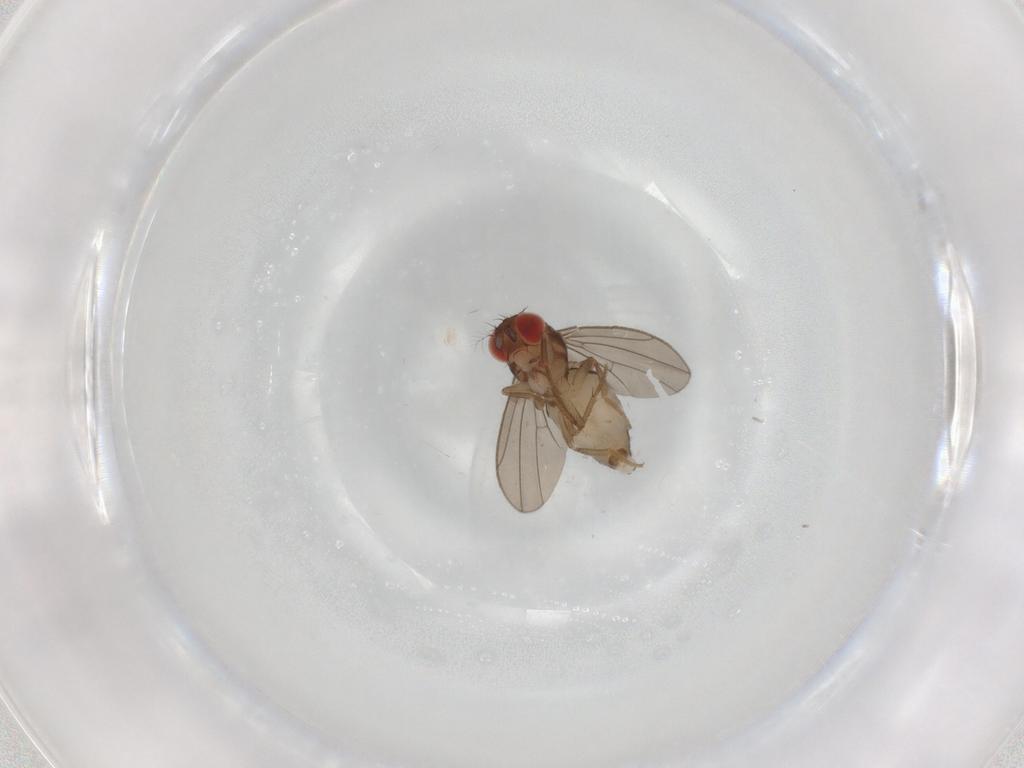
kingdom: Animalia
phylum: Arthropoda
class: Insecta
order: Diptera
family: Drosophilidae
